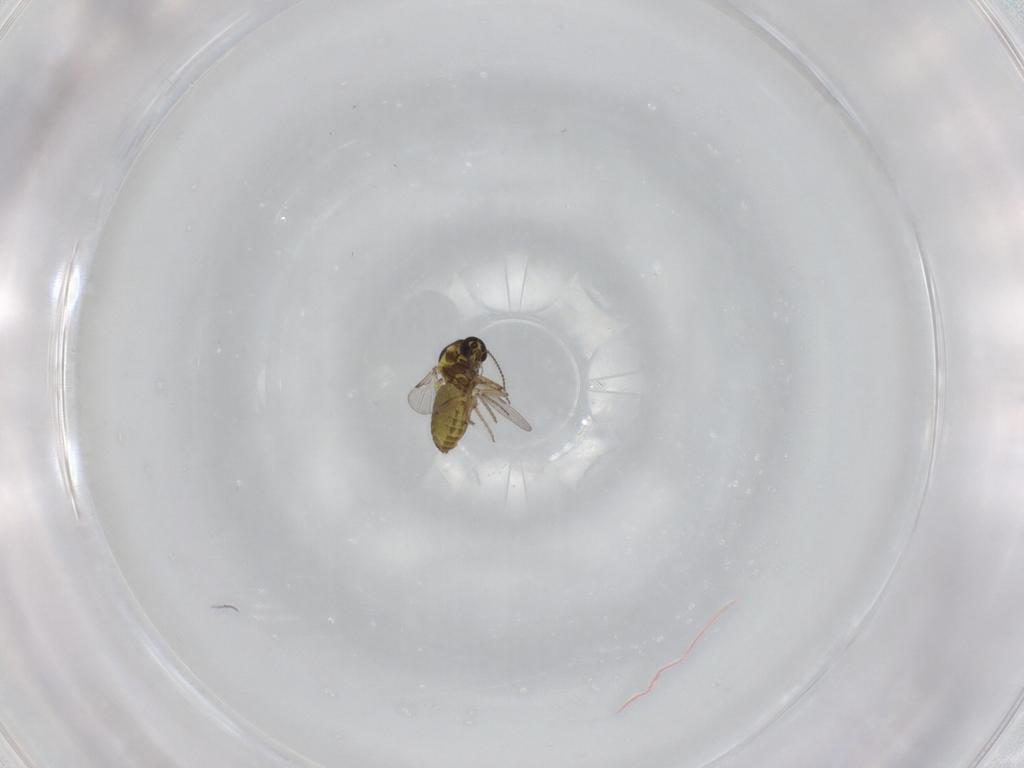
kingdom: Animalia
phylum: Arthropoda
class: Insecta
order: Diptera
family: Ceratopogonidae
